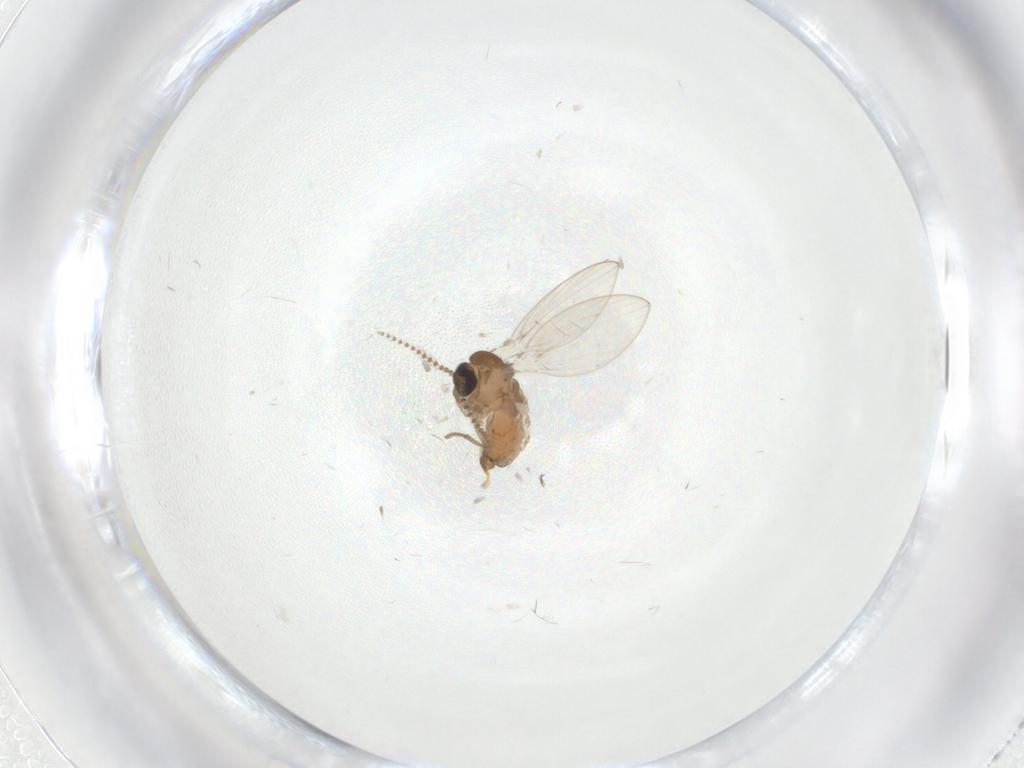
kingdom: Animalia
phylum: Arthropoda
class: Insecta
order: Diptera
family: Psychodidae
